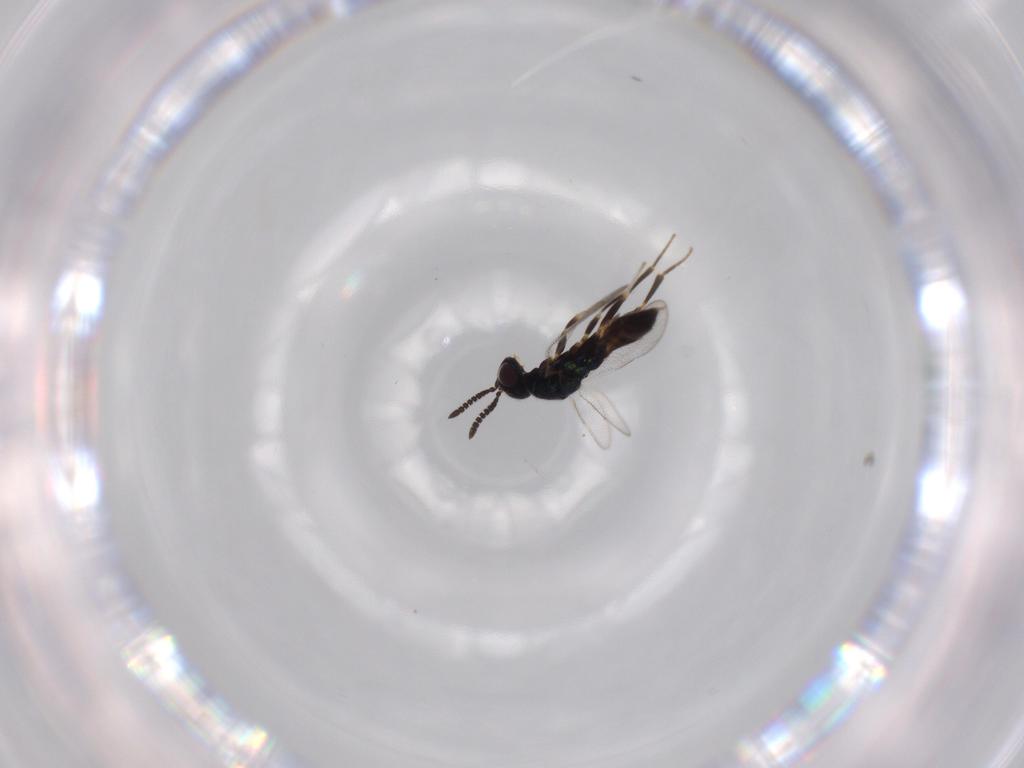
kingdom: Animalia
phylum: Arthropoda
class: Insecta
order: Hymenoptera
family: Cleonyminae
